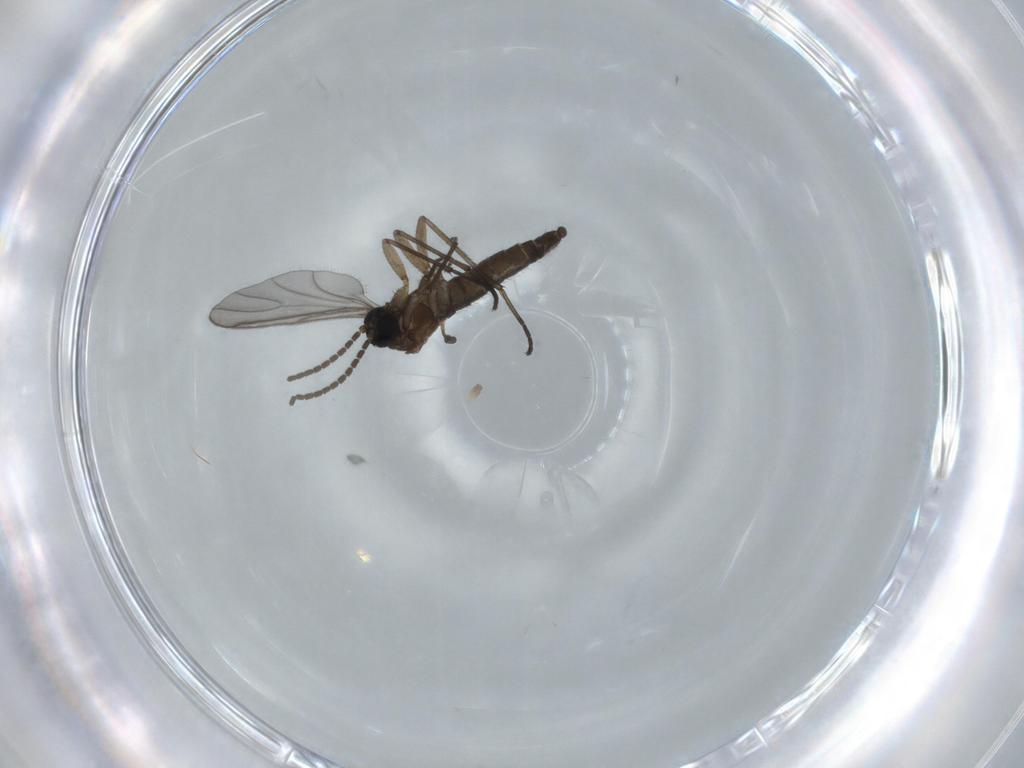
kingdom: Animalia
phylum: Arthropoda
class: Insecta
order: Diptera
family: Sciaridae
